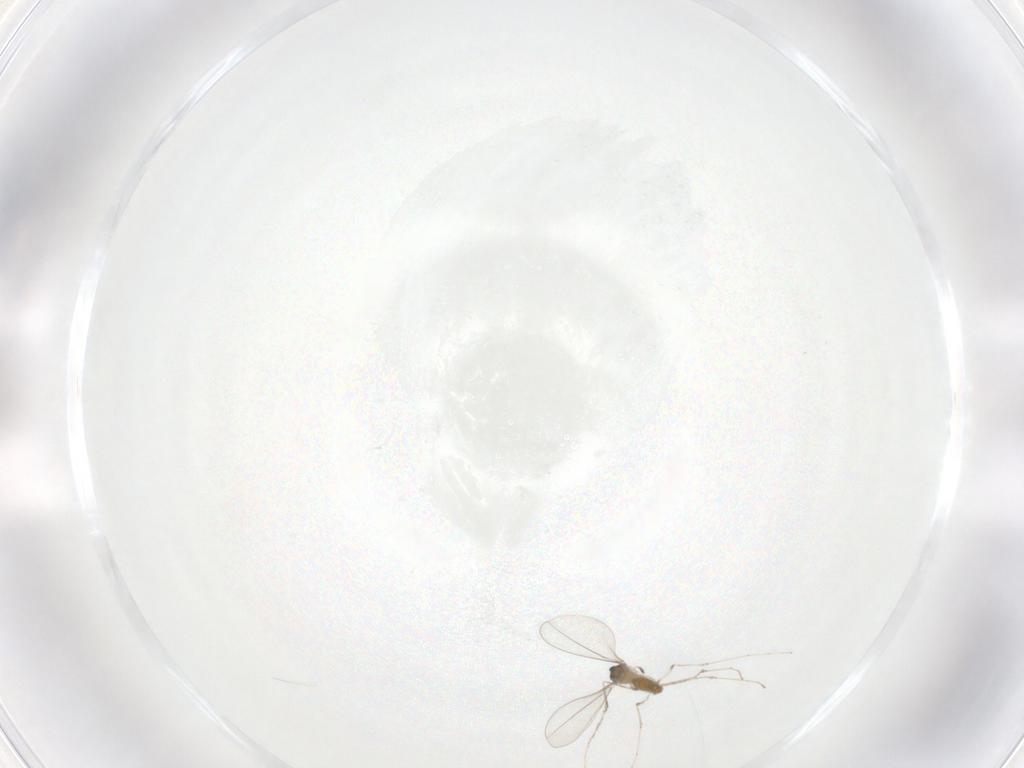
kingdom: Animalia
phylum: Arthropoda
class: Insecta
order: Diptera
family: Cecidomyiidae
